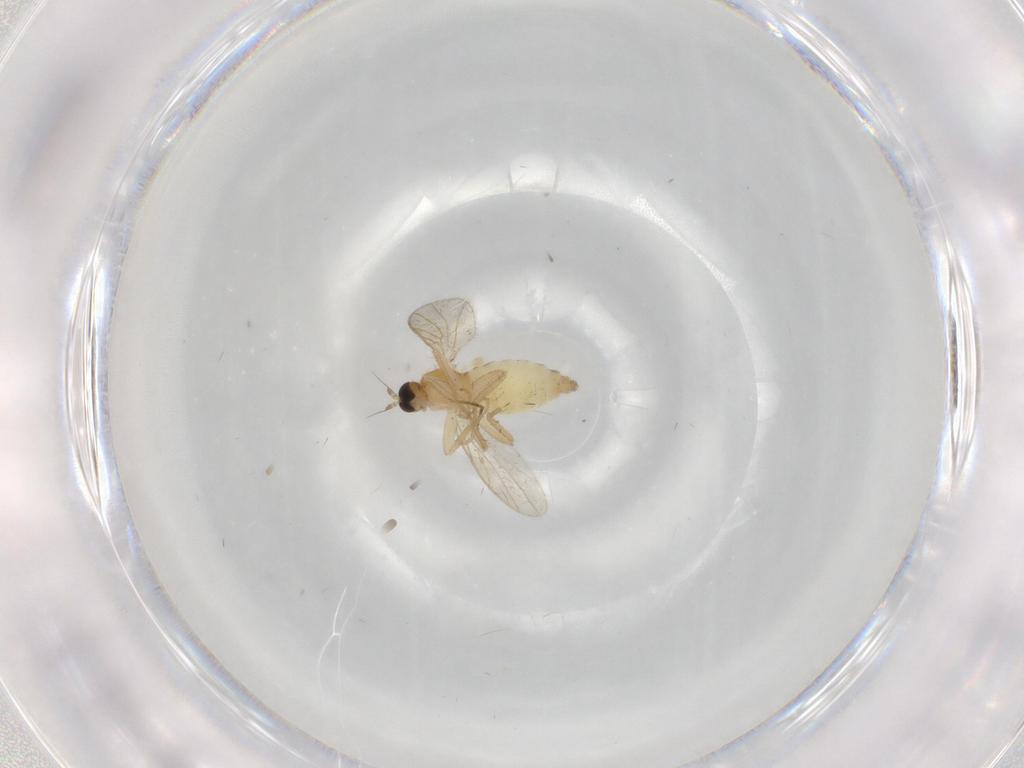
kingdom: Animalia
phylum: Arthropoda
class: Insecta
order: Diptera
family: Hybotidae
